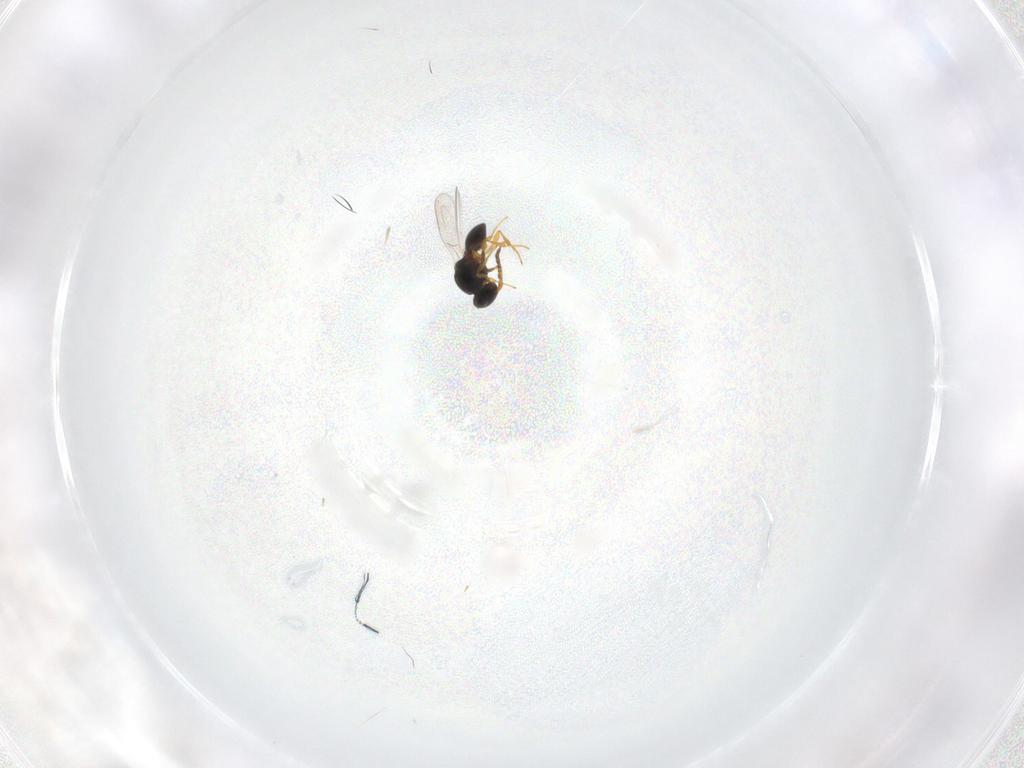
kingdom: Animalia
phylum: Arthropoda
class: Insecta
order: Hymenoptera
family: Platygastridae
